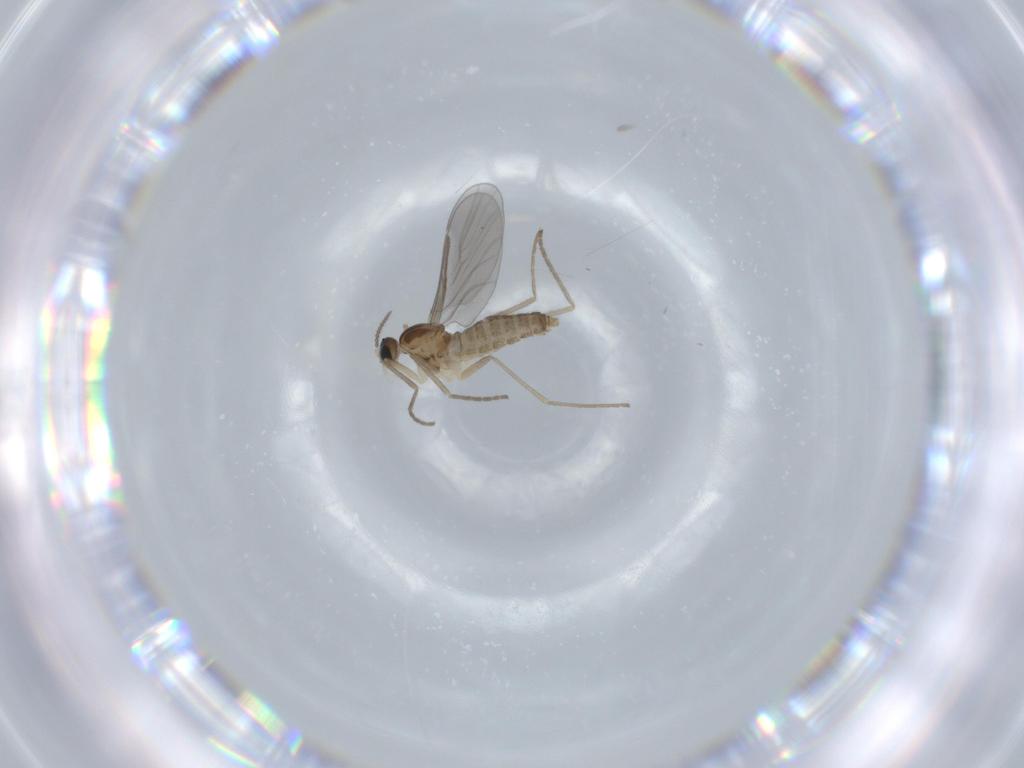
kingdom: Animalia
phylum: Arthropoda
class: Insecta
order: Diptera
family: Cecidomyiidae
